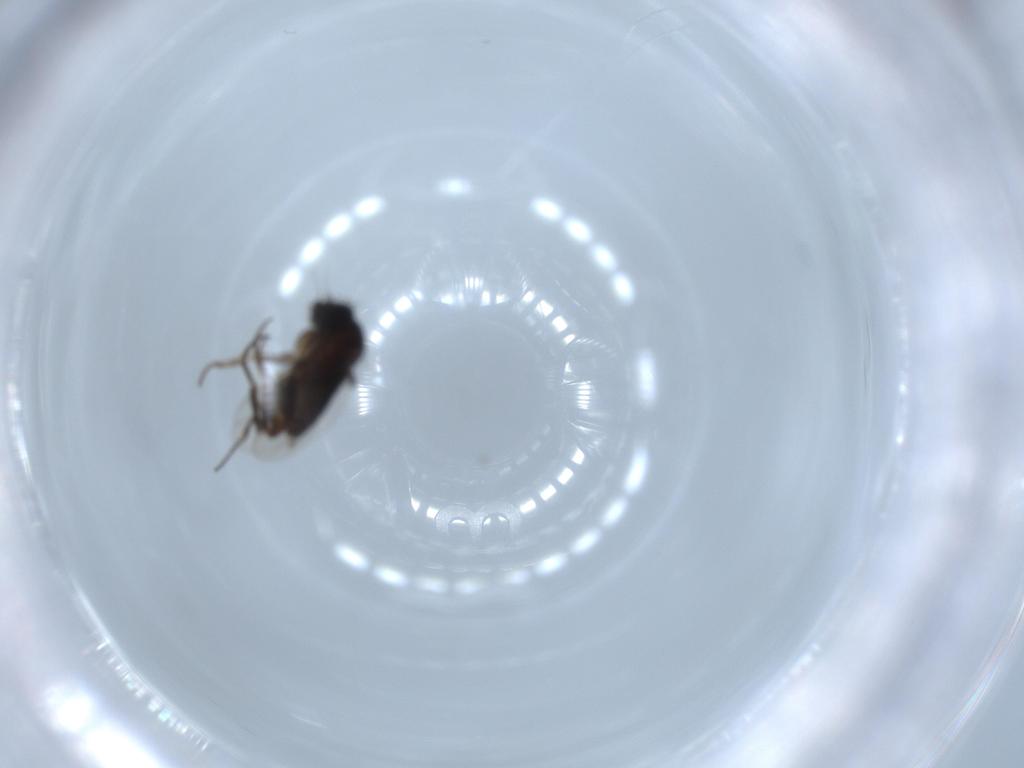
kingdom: Animalia
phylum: Arthropoda
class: Insecta
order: Diptera
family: Phoridae
